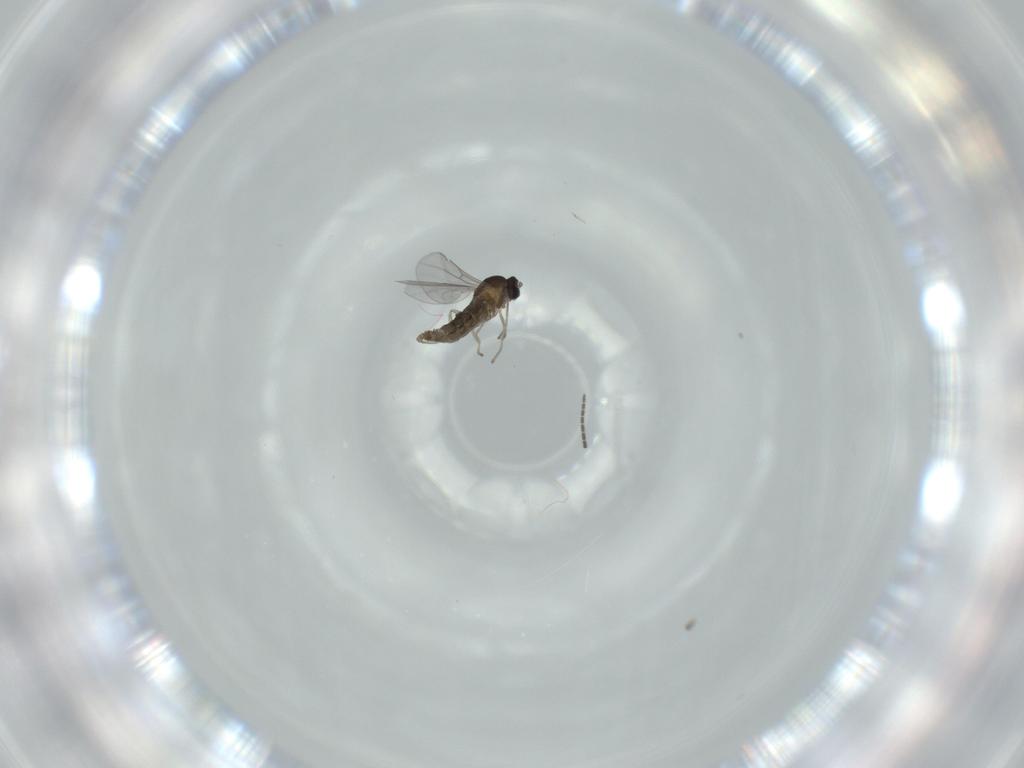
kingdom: Animalia
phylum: Arthropoda
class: Insecta
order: Diptera
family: Cecidomyiidae
